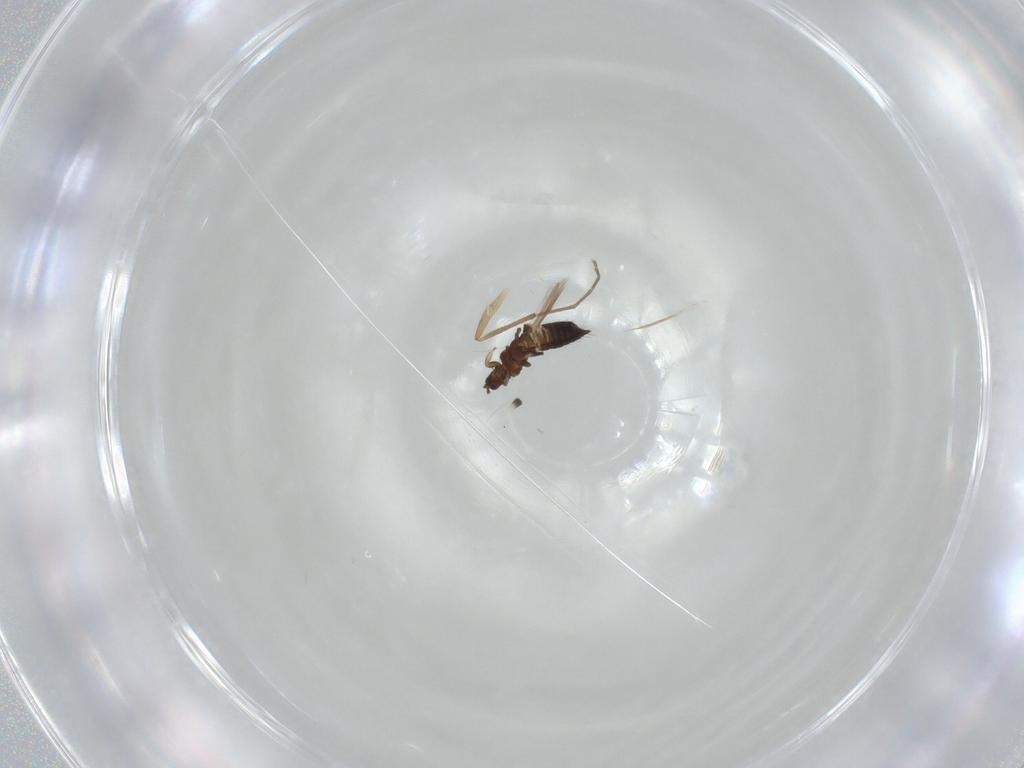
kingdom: Animalia
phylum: Arthropoda
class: Insecta
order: Thysanoptera
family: Thripidae
